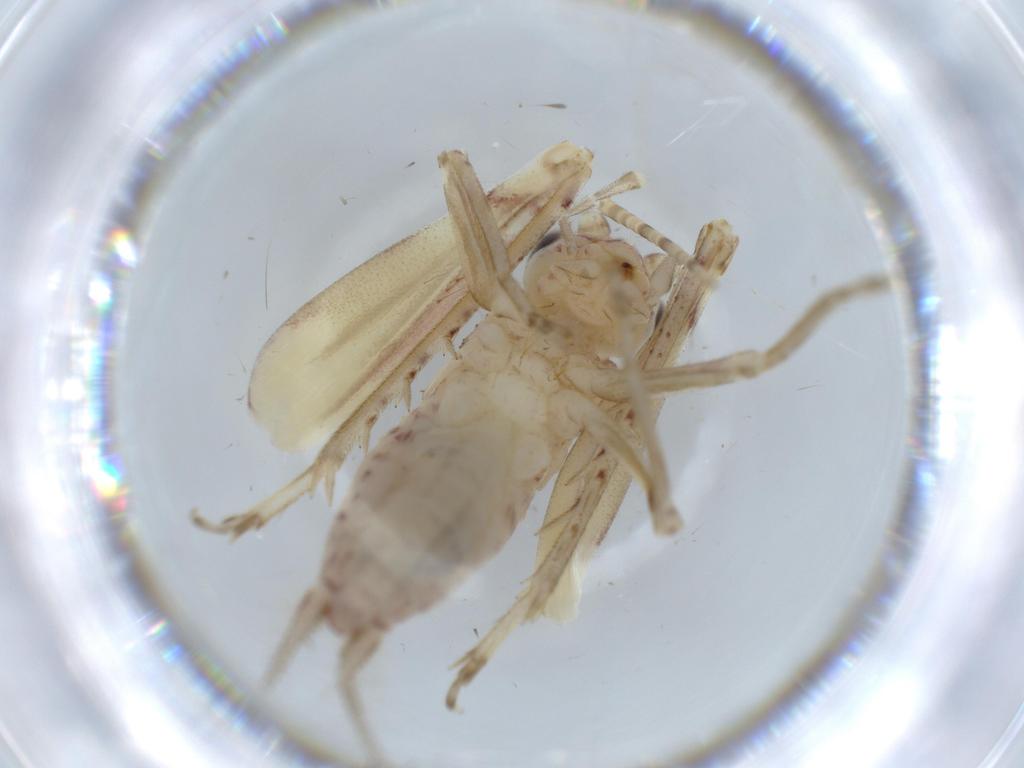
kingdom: Animalia
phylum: Arthropoda
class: Insecta
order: Orthoptera
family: Trigonidiidae
